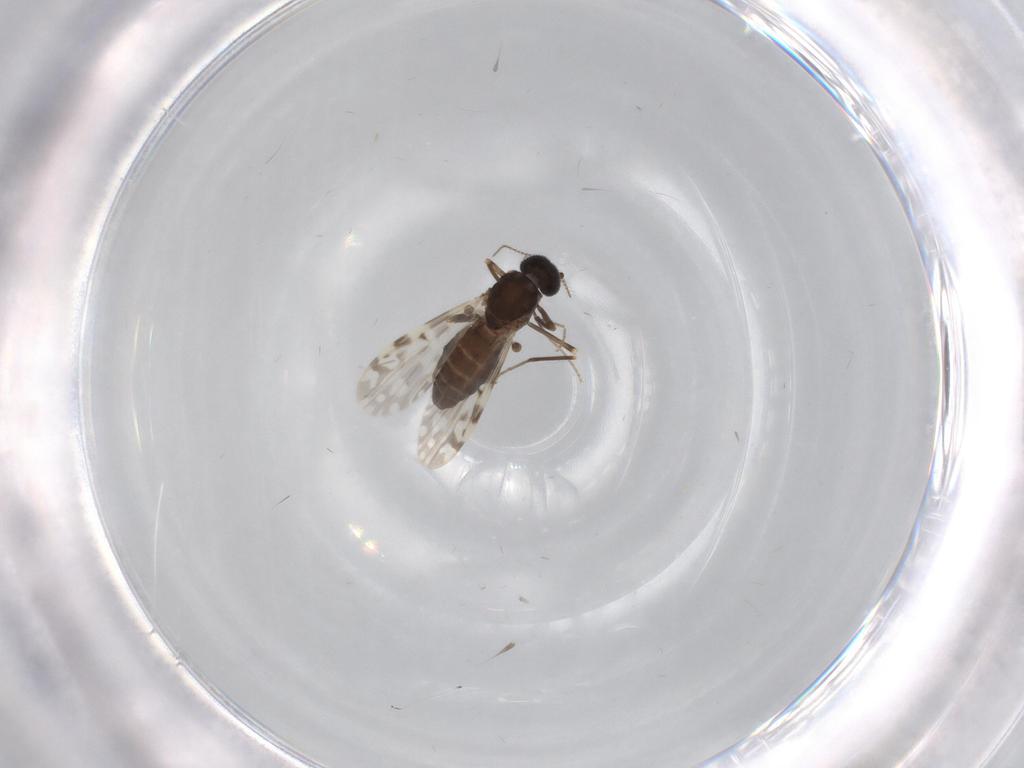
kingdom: Animalia
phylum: Arthropoda
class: Insecta
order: Diptera
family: Ceratopogonidae
